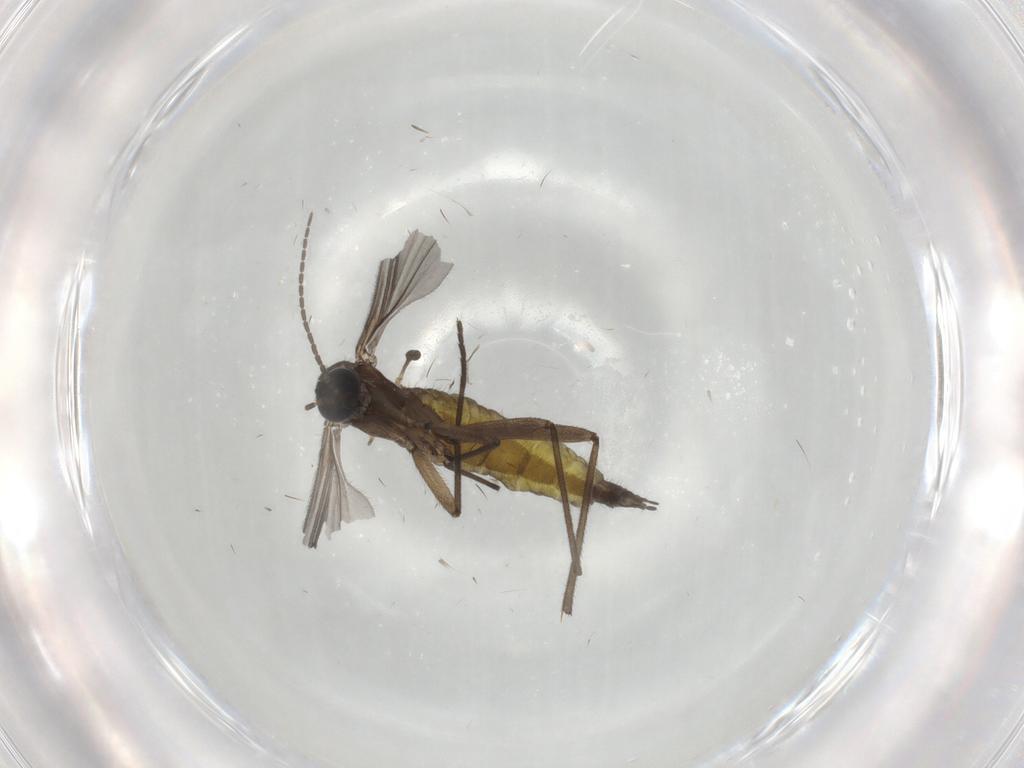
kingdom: Animalia
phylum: Arthropoda
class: Insecta
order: Diptera
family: Sciaridae
